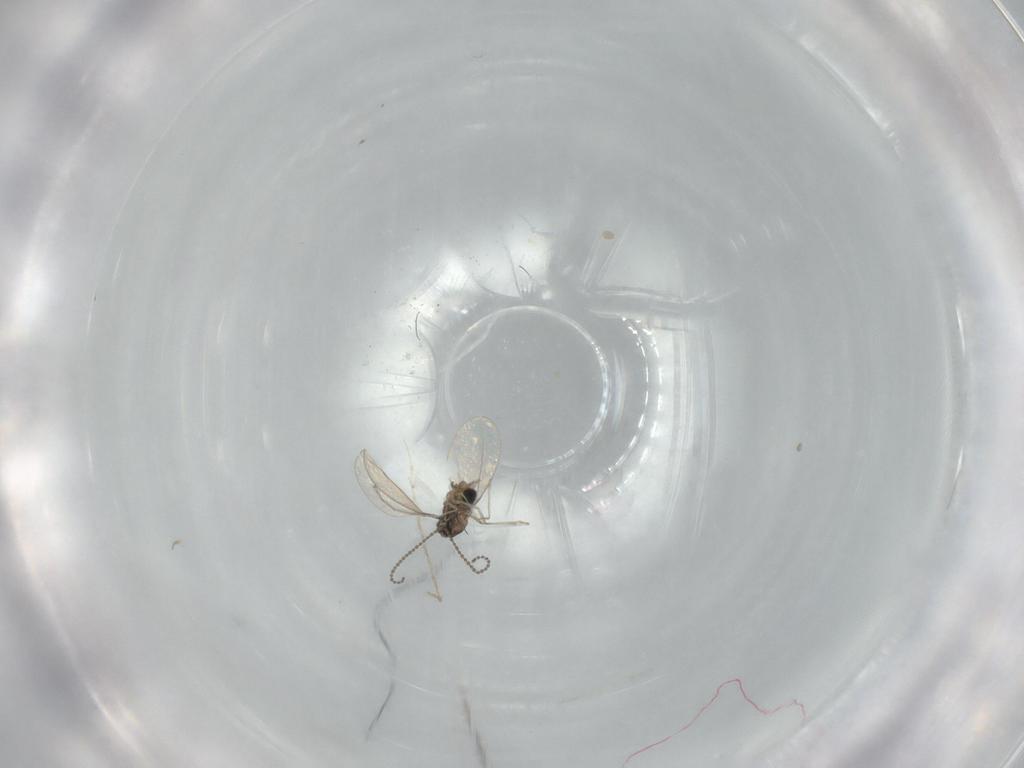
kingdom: Animalia
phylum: Arthropoda
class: Insecta
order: Diptera
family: Cecidomyiidae
